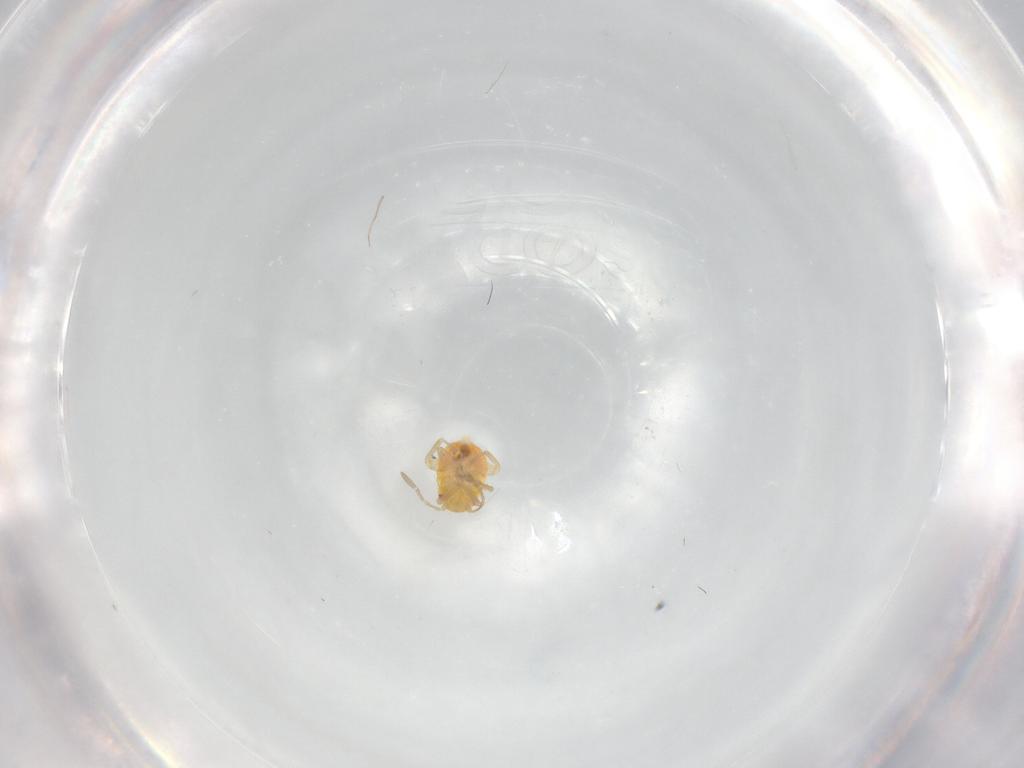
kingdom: Animalia
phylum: Arthropoda
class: Insecta
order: Hemiptera
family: Miridae
